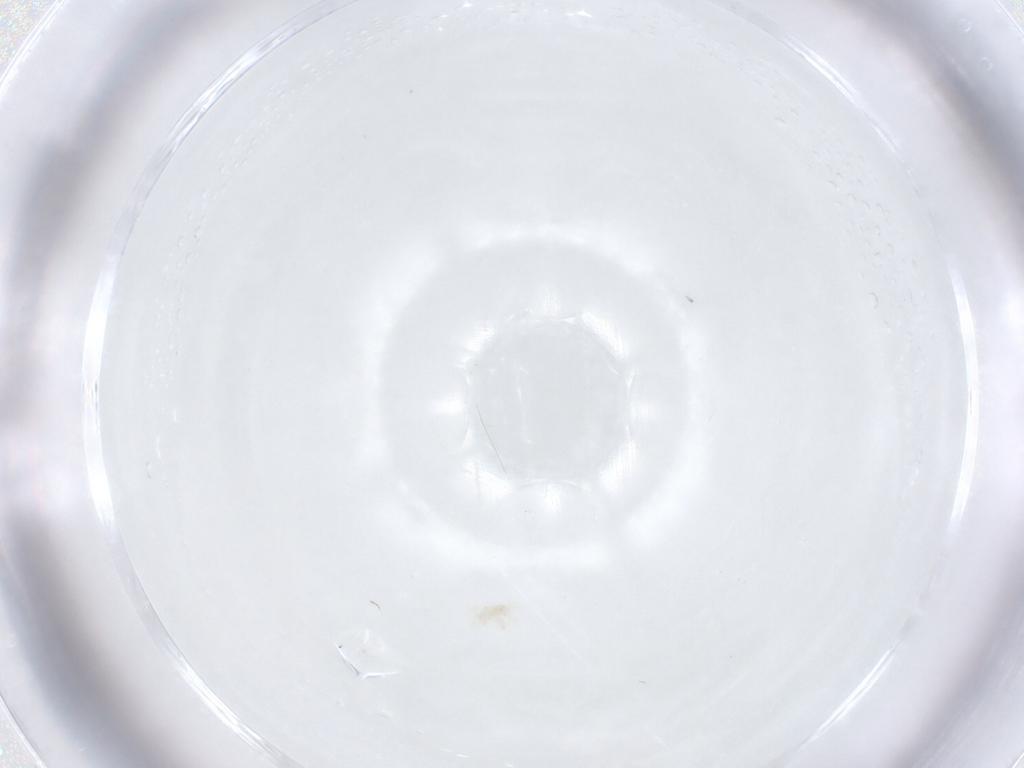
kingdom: Animalia
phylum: Arthropoda
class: Arachnida
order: Trombidiformes
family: Anystidae
